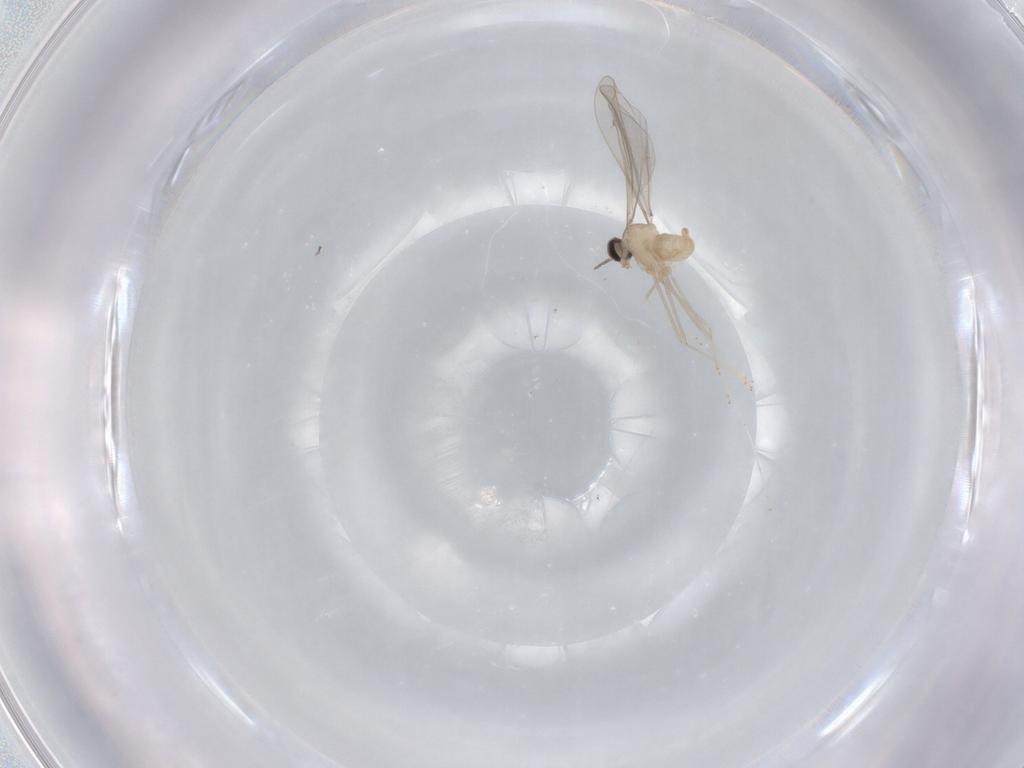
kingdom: Animalia
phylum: Arthropoda
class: Insecta
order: Diptera
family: Cecidomyiidae
